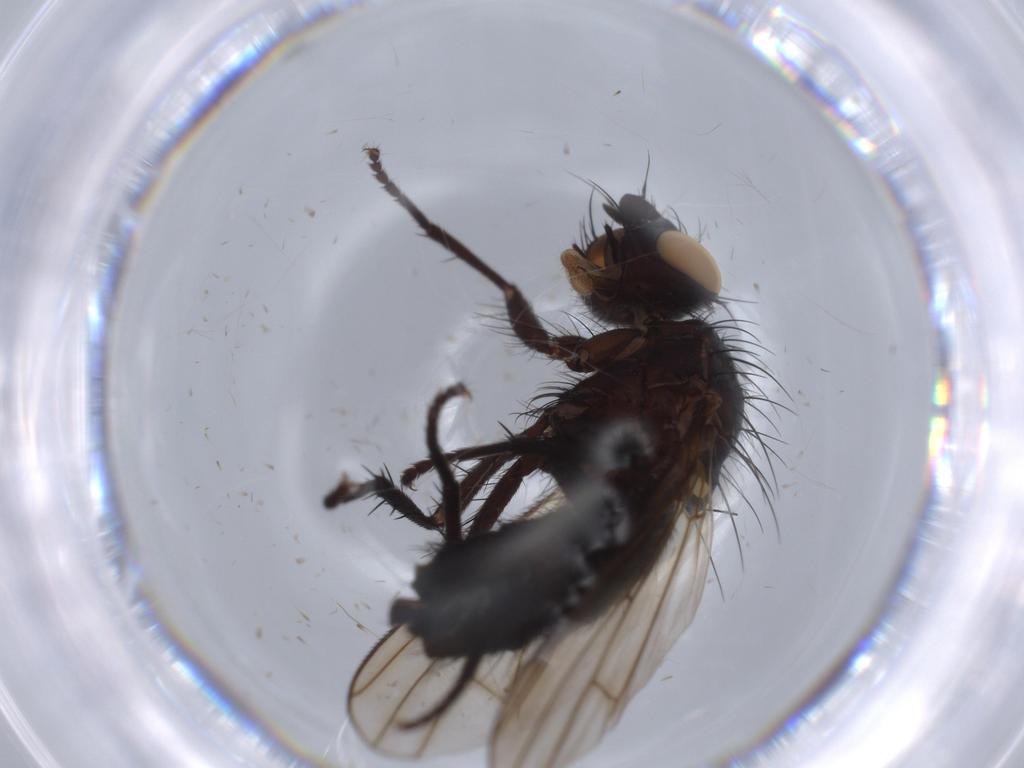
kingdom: Animalia
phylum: Arthropoda
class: Insecta
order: Diptera
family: Anthomyiidae
